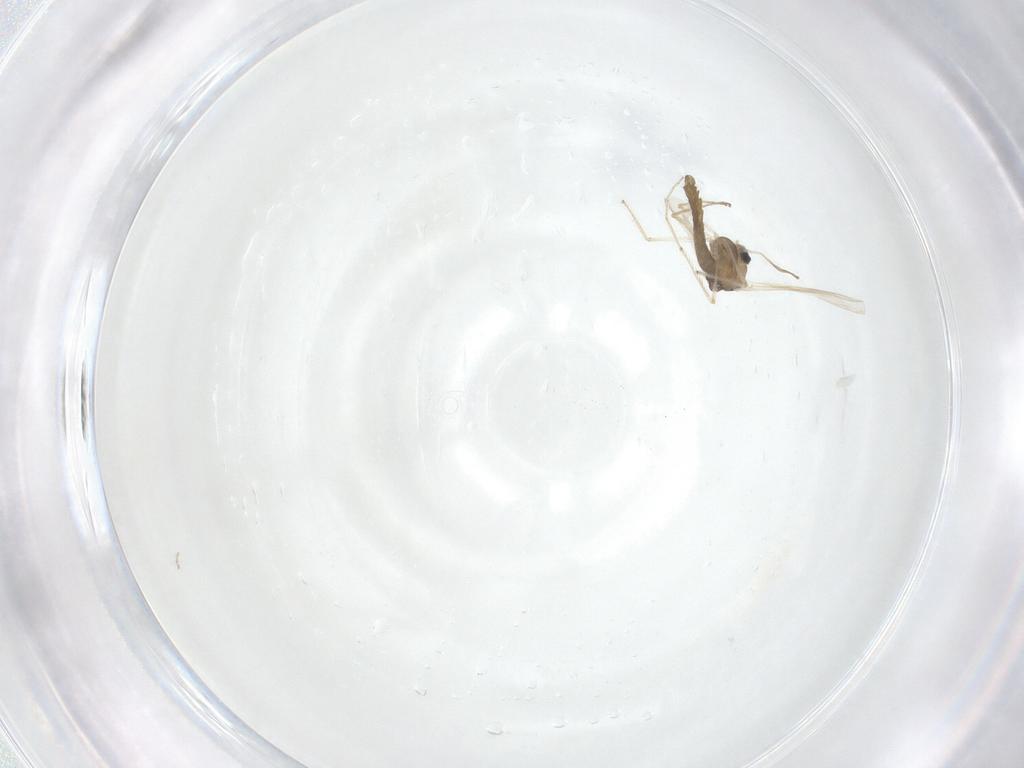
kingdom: Animalia
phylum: Arthropoda
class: Insecta
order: Diptera
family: Chironomidae
